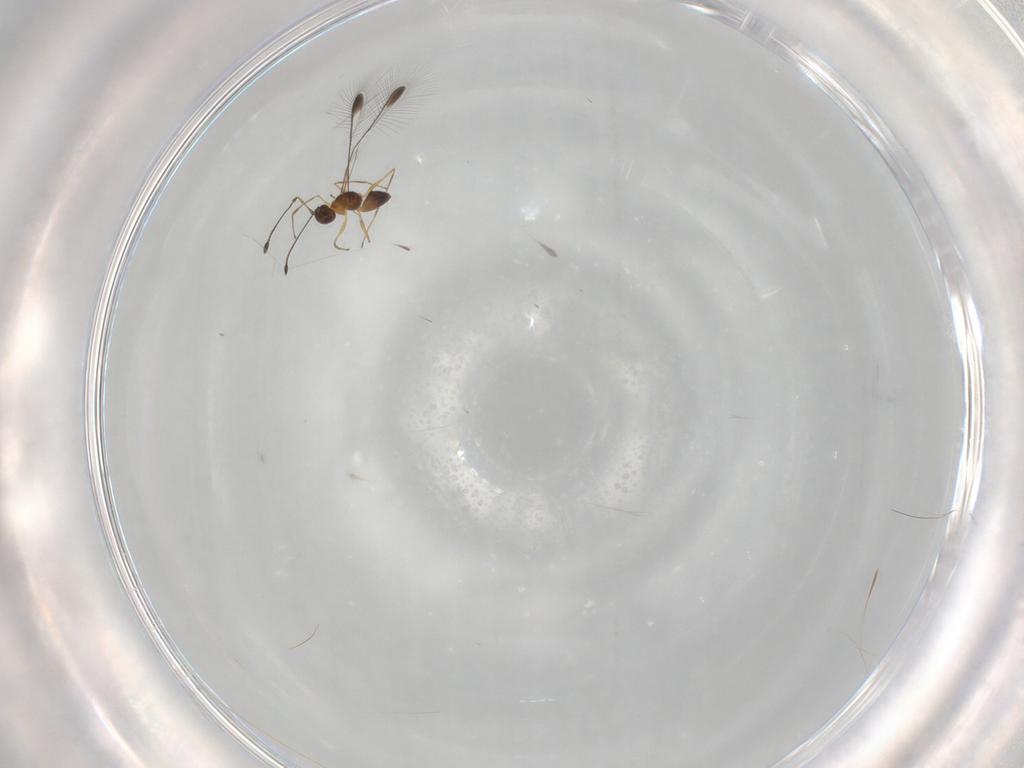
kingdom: Animalia
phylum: Arthropoda
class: Insecta
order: Hymenoptera
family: Mymaridae
